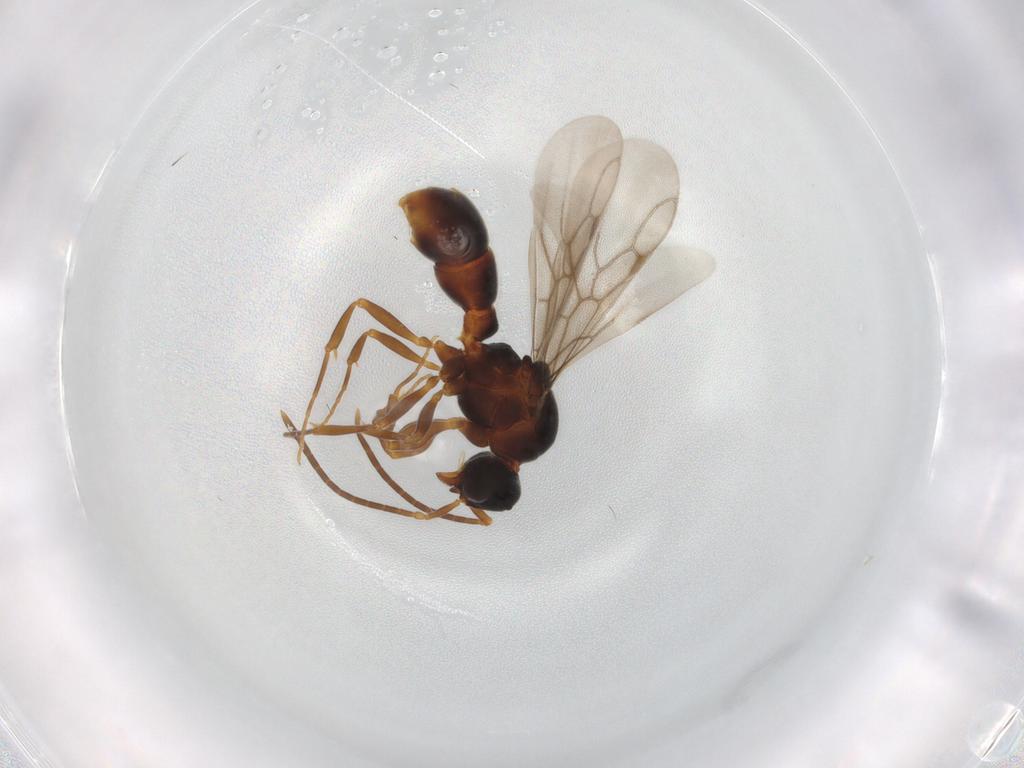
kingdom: Animalia
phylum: Arthropoda
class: Insecta
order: Hymenoptera
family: Formicidae
